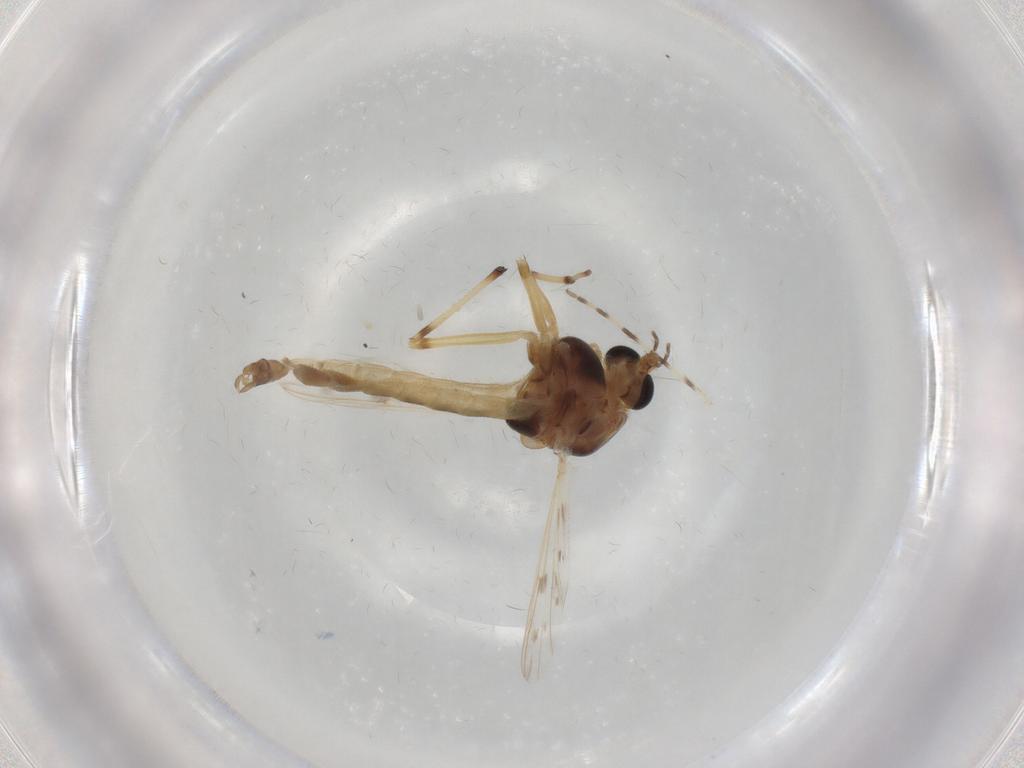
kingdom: Animalia
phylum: Arthropoda
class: Insecta
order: Diptera
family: Chironomidae
